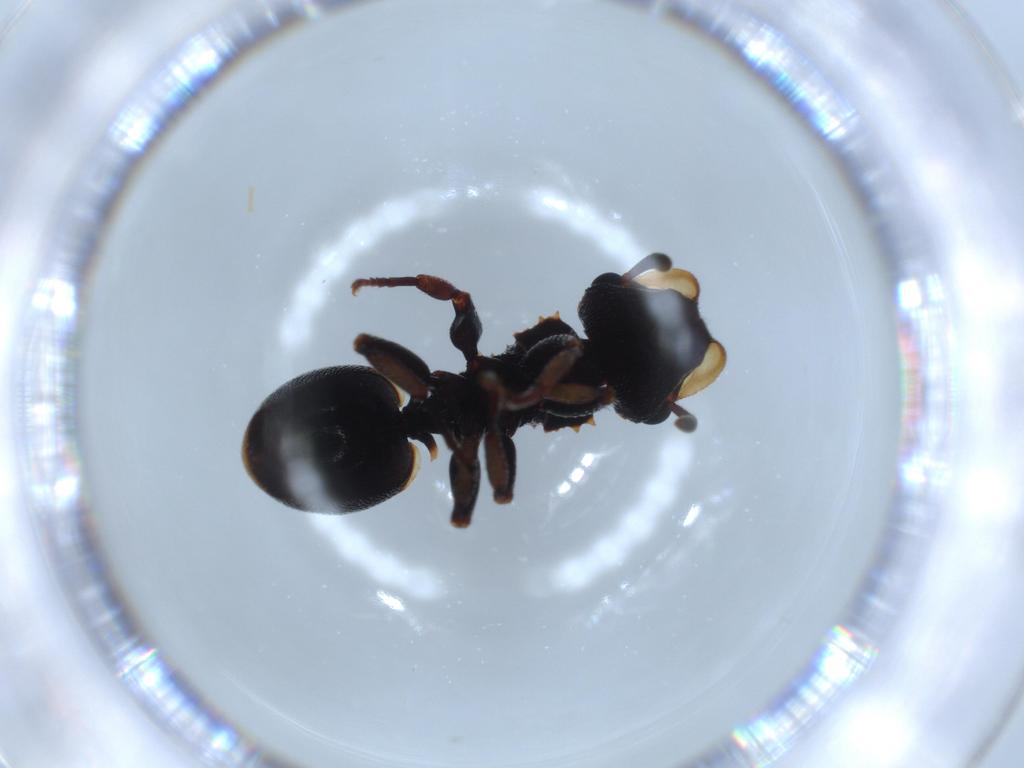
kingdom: Animalia
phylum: Arthropoda
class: Insecta
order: Hymenoptera
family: Formicidae
